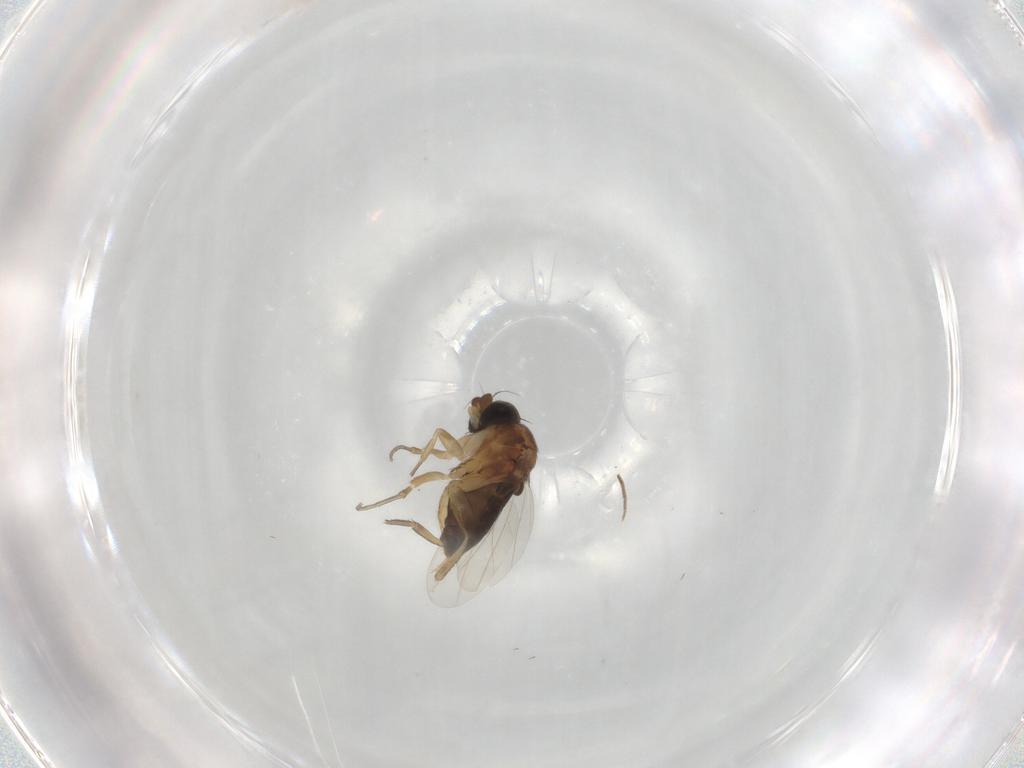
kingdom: Animalia
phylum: Arthropoda
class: Insecta
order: Diptera
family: Phoridae
